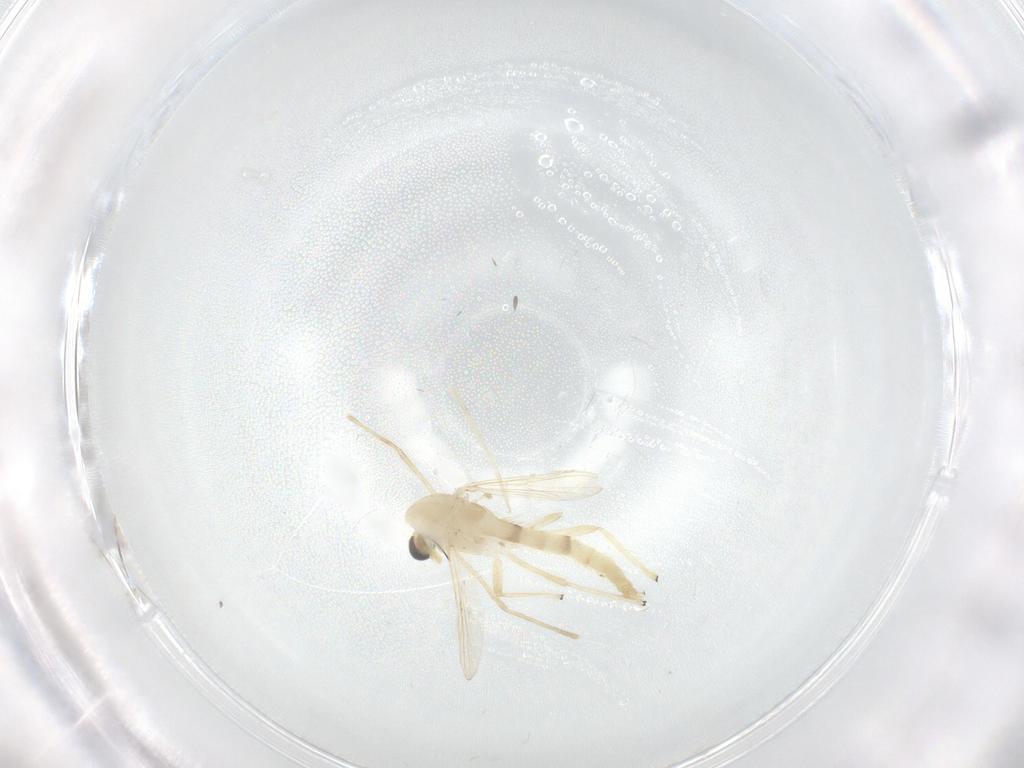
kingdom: Animalia
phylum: Arthropoda
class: Insecta
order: Diptera
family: Chironomidae
